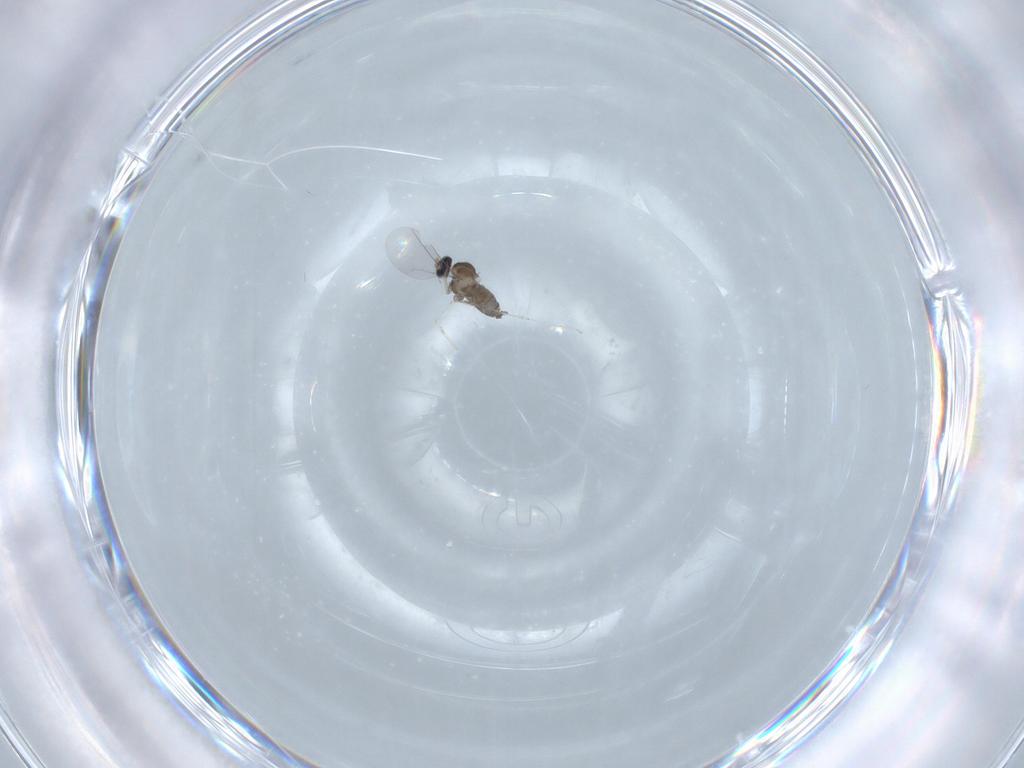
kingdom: Animalia
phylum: Arthropoda
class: Insecta
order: Diptera
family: Cecidomyiidae
